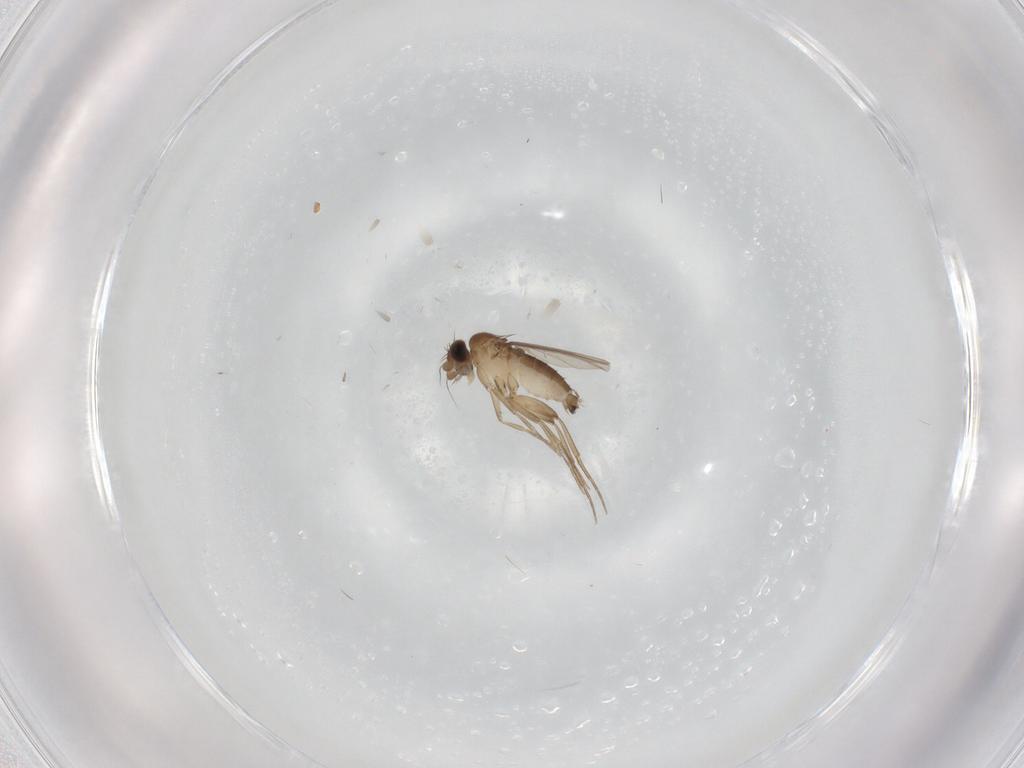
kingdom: Animalia
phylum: Arthropoda
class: Insecta
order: Diptera
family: Phoridae
